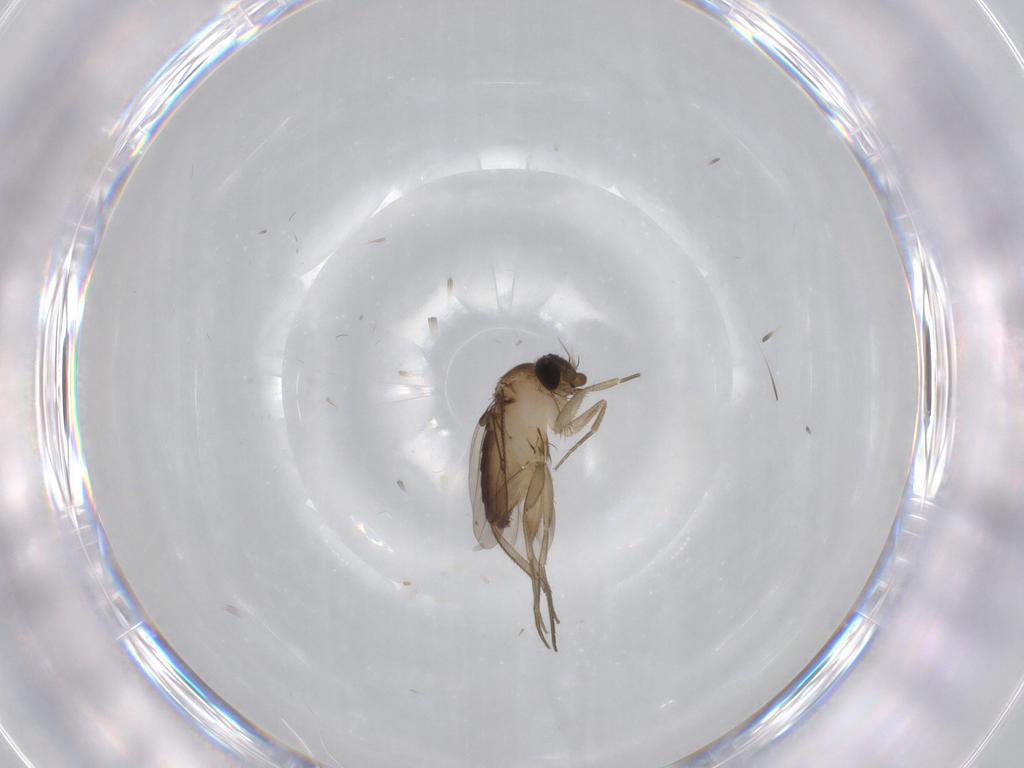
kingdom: Animalia
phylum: Arthropoda
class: Insecta
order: Diptera
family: Phoridae
